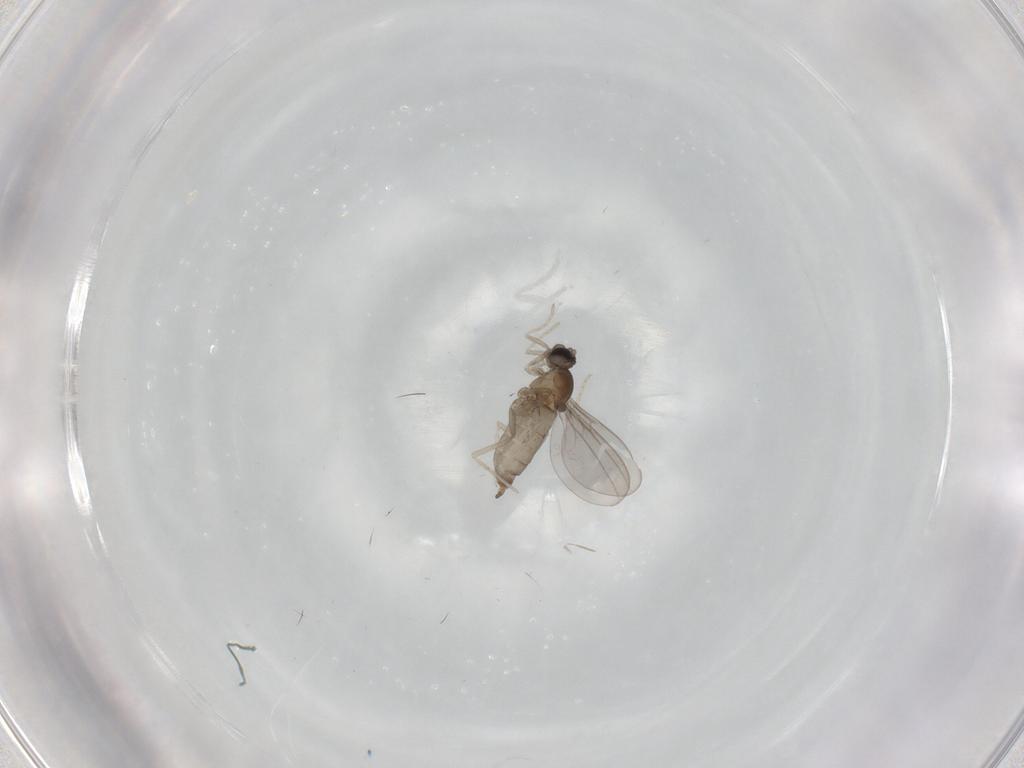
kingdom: Animalia
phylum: Arthropoda
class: Insecta
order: Diptera
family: Cecidomyiidae
